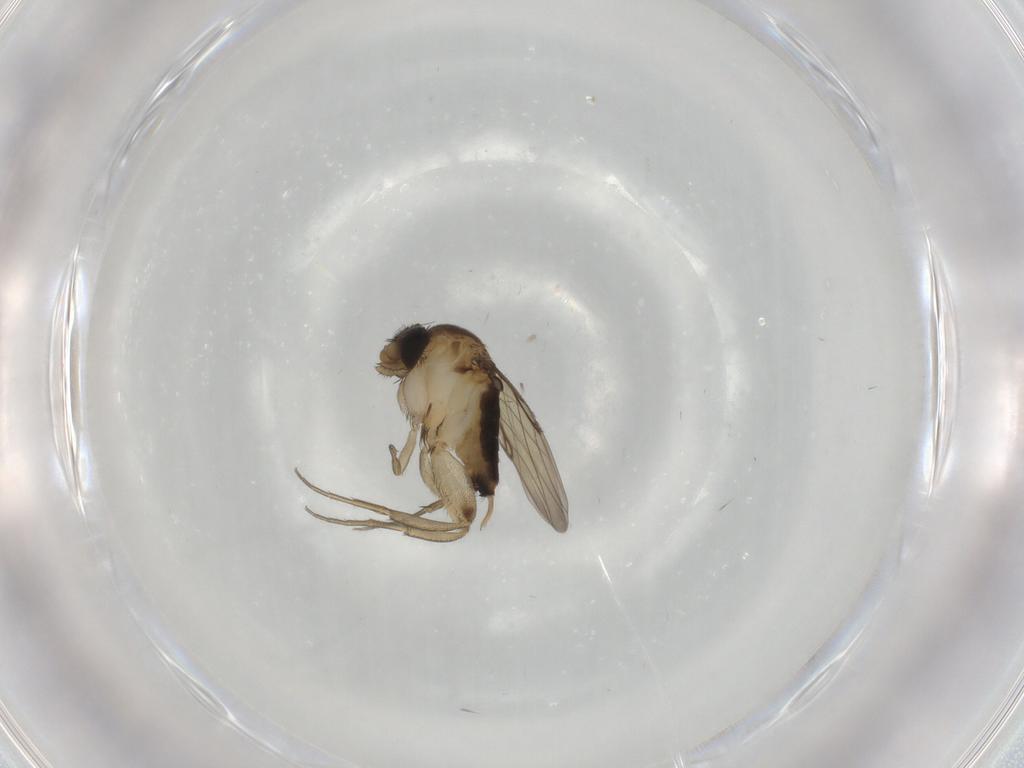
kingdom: Animalia
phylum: Arthropoda
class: Insecta
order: Diptera
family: Phoridae
